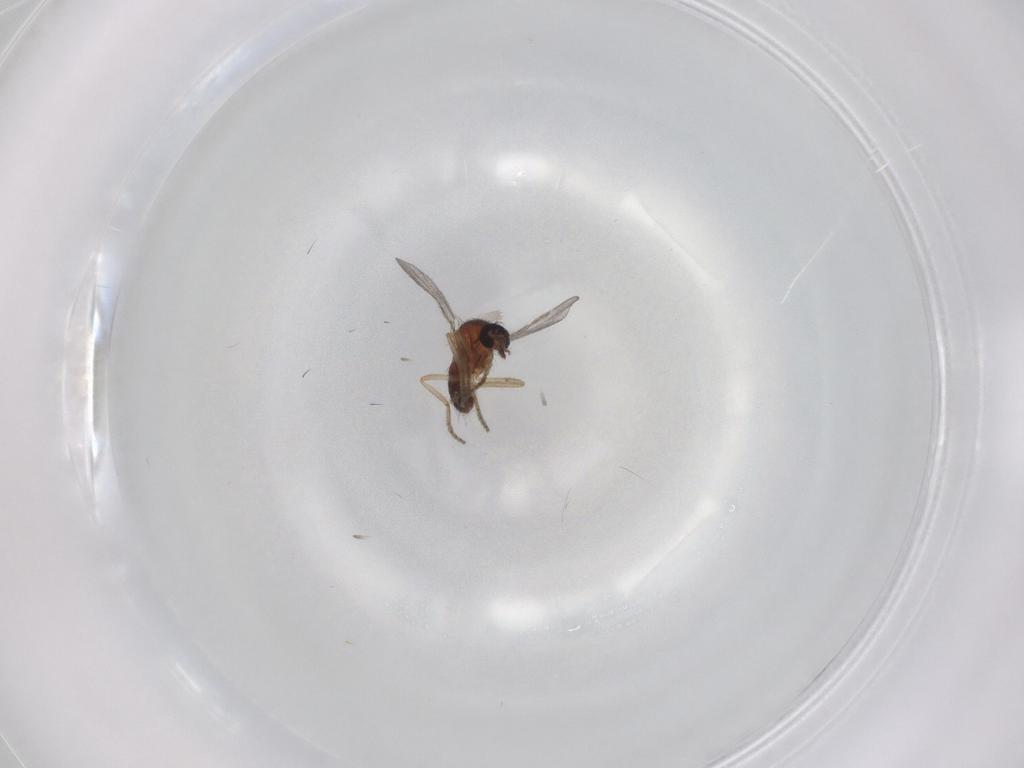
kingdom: Animalia
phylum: Arthropoda
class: Insecta
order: Diptera
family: Ceratopogonidae
